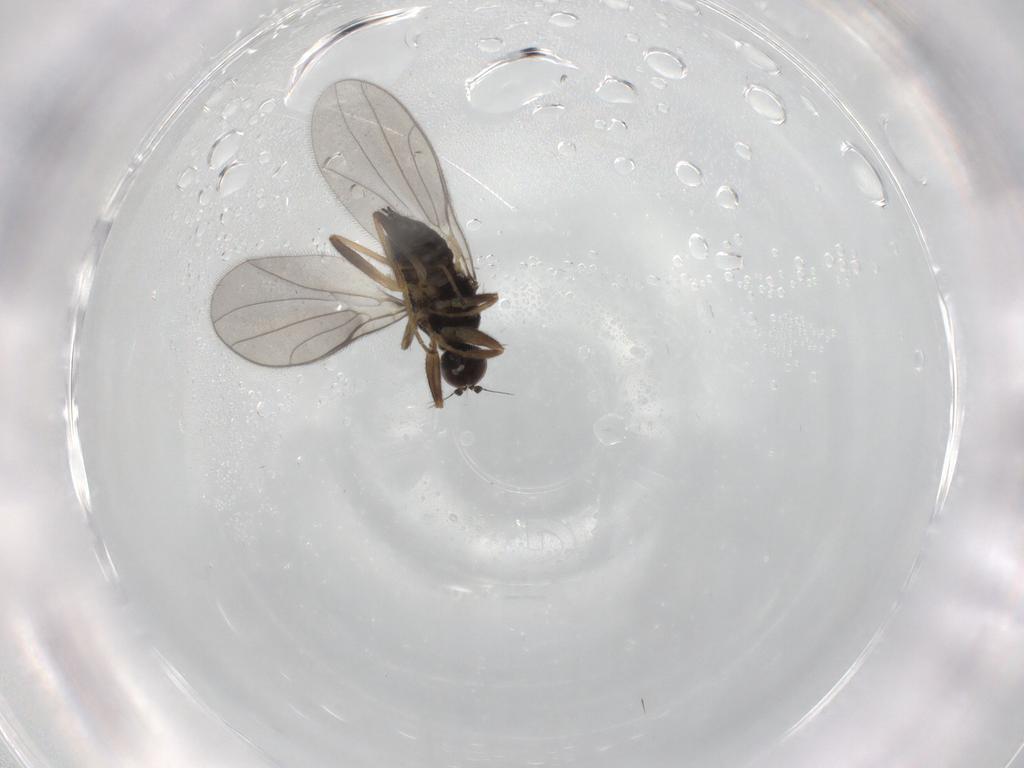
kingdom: Animalia
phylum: Arthropoda
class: Insecta
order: Diptera
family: Hybotidae
